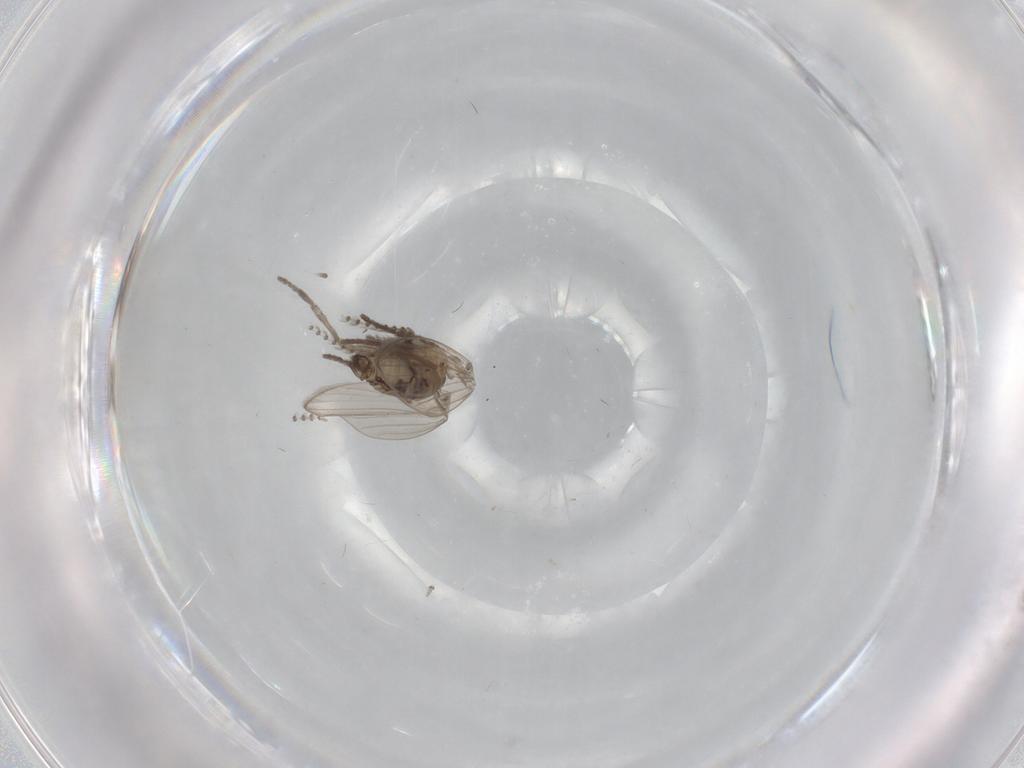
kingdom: Animalia
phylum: Arthropoda
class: Insecta
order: Diptera
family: Psychodidae
